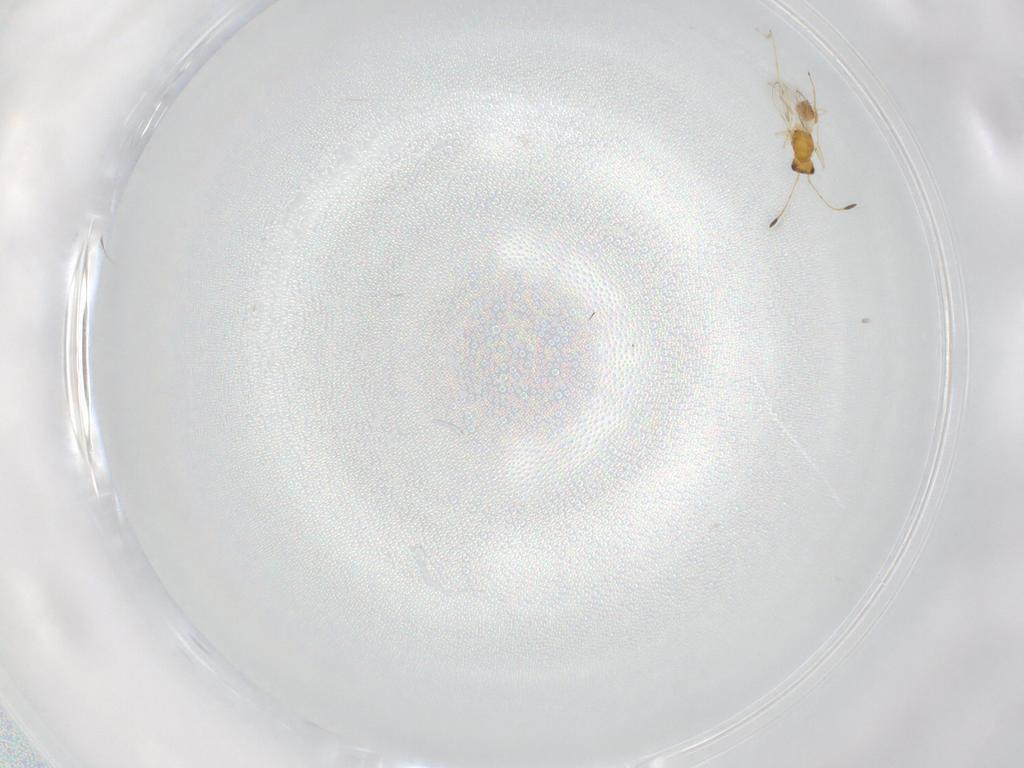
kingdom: Animalia
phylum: Arthropoda
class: Insecta
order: Hymenoptera
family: Mymaridae
